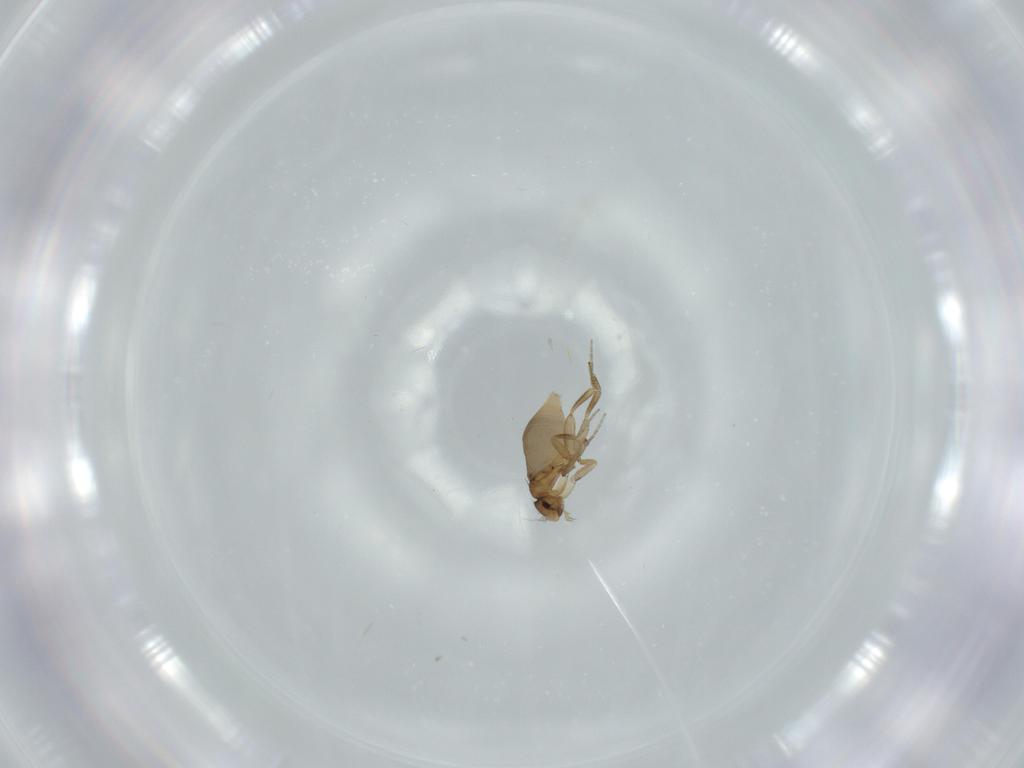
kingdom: Animalia
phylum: Arthropoda
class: Insecta
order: Diptera
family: Phoridae
